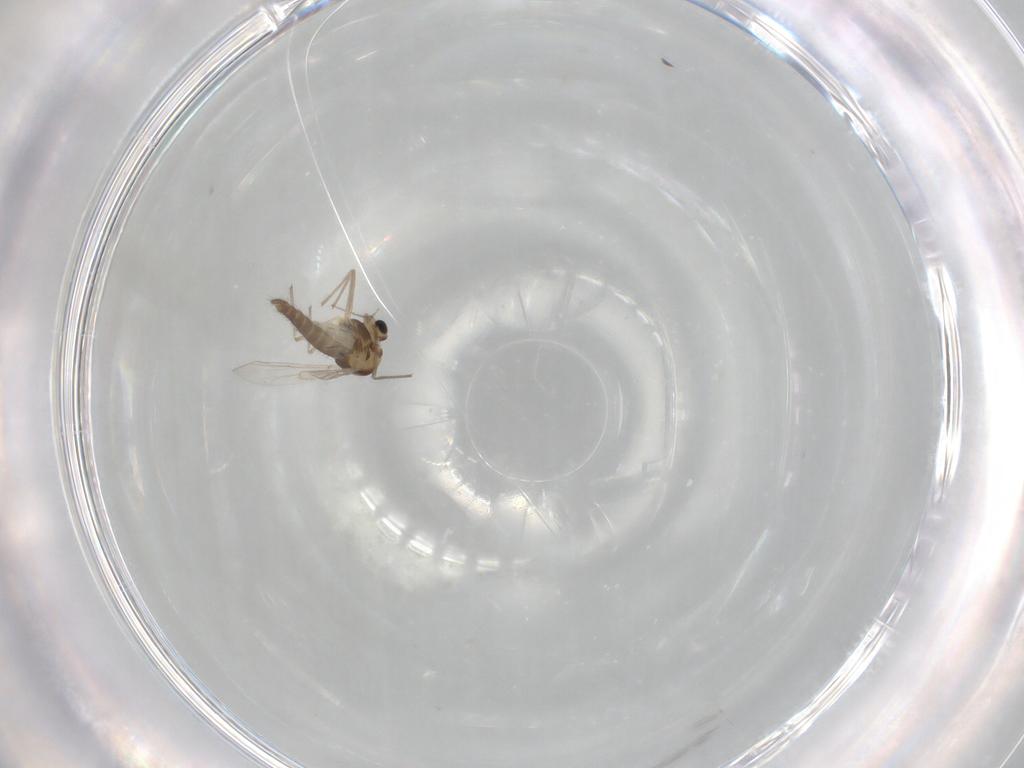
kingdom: Animalia
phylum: Arthropoda
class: Insecta
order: Diptera
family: Chironomidae
